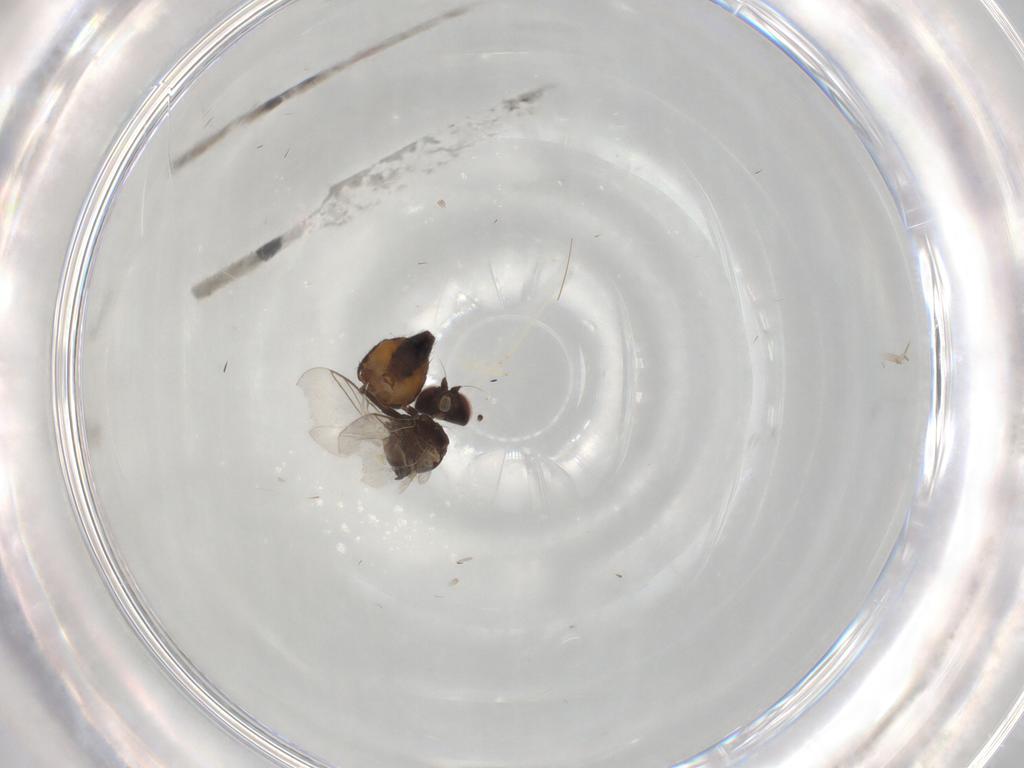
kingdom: Animalia
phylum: Arthropoda
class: Insecta
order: Diptera
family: Agromyzidae
